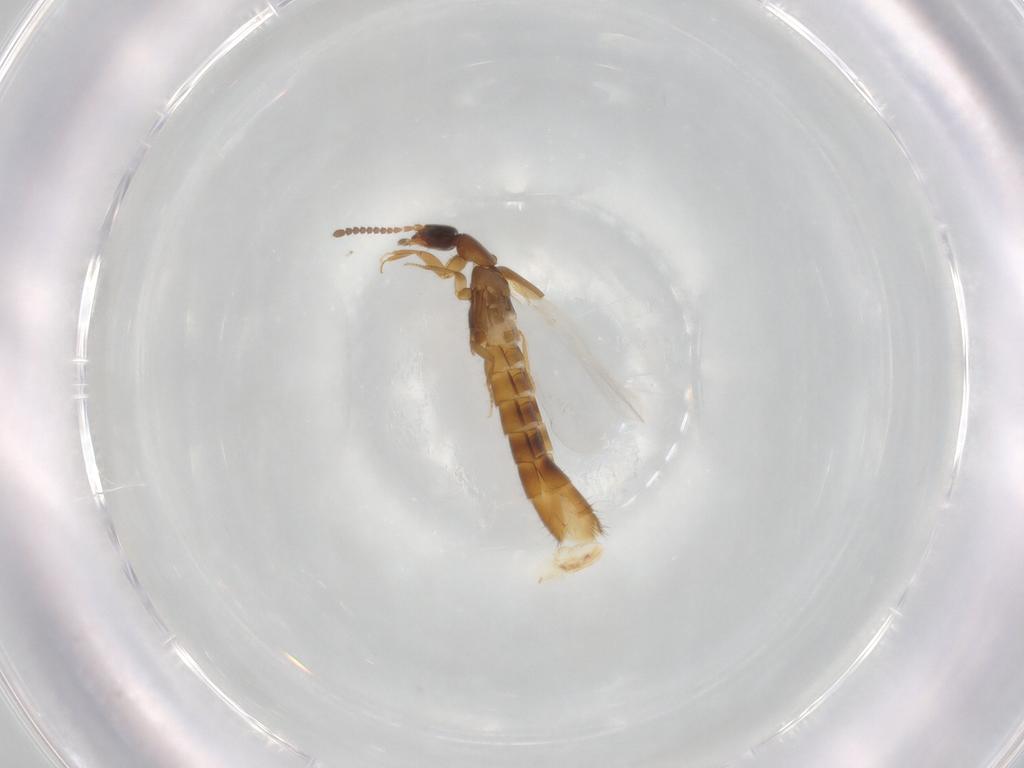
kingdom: Animalia
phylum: Arthropoda
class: Insecta
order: Coleoptera
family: Staphylinidae
